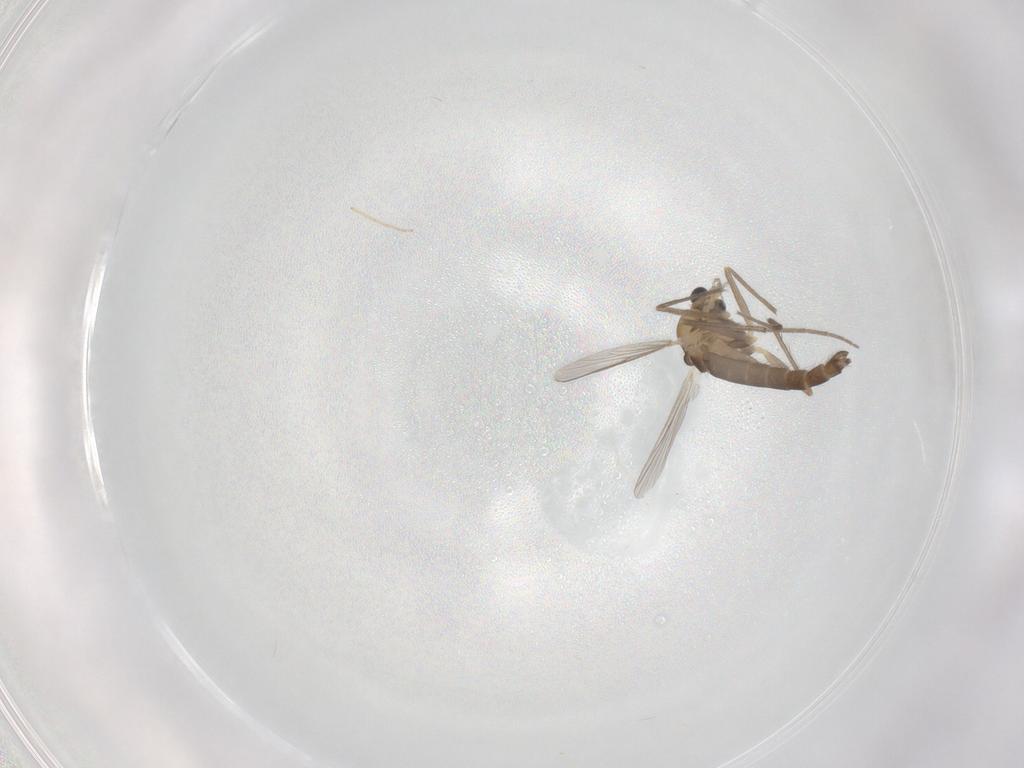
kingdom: Animalia
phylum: Arthropoda
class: Insecta
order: Diptera
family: Chironomidae
